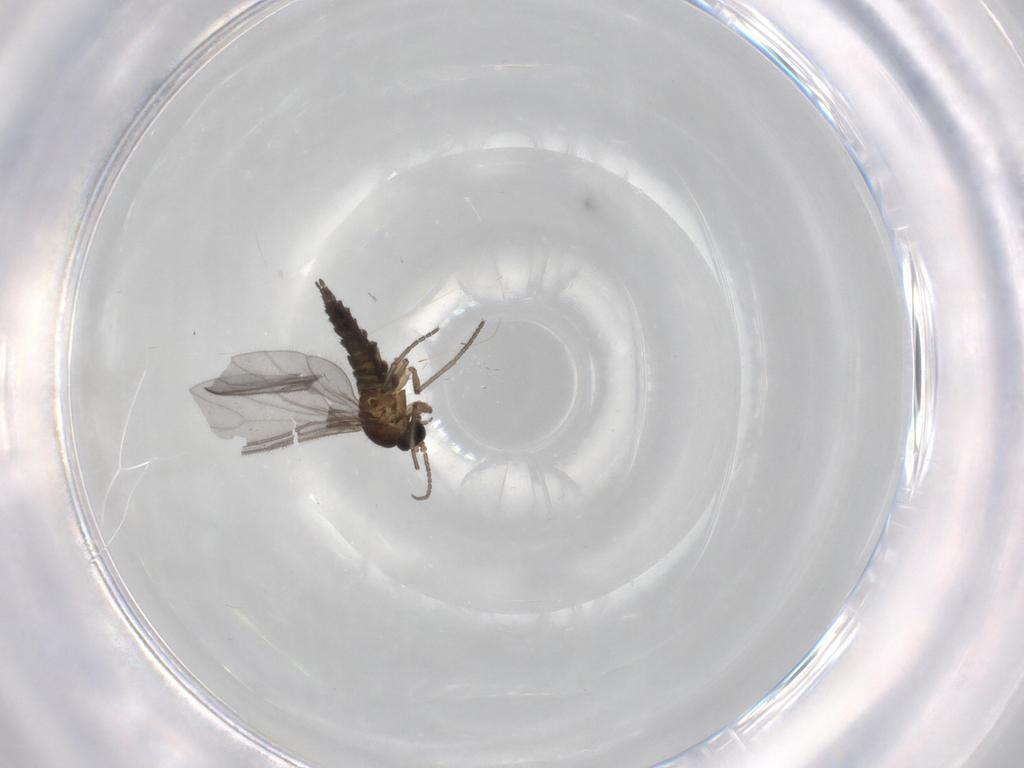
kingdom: Animalia
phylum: Arthropoda
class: Insecta
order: Diptera
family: Sciaridae
